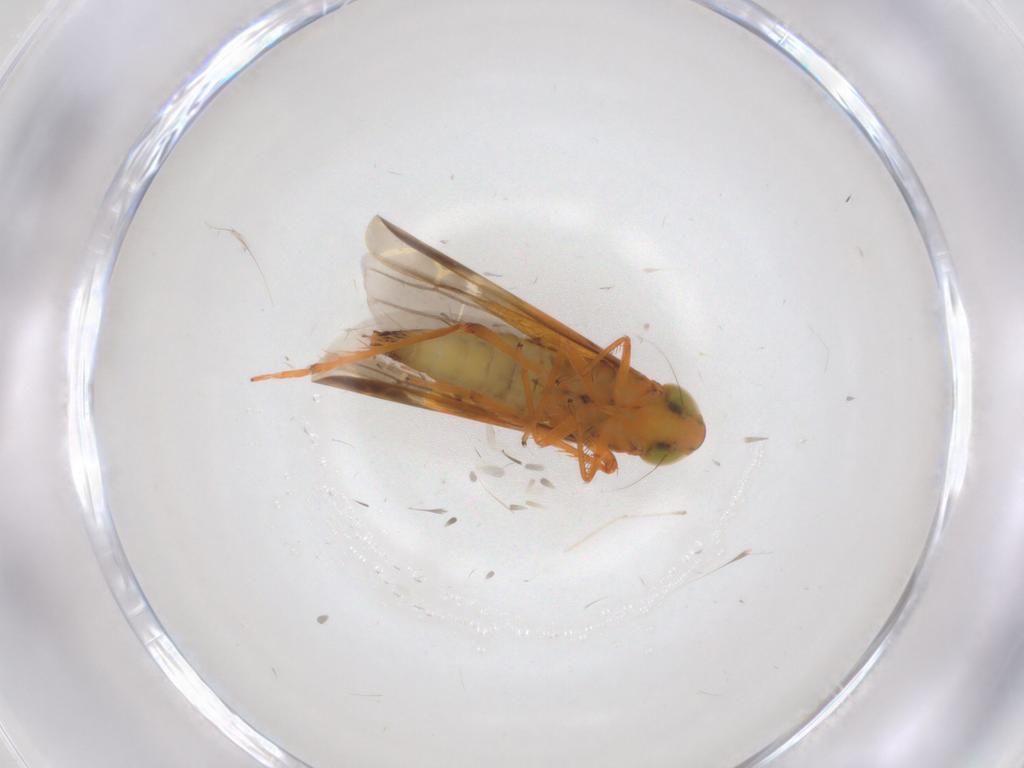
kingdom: Animalia
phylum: Arthropoda
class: Insecta
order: Hemiptera
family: Cicadellidae
